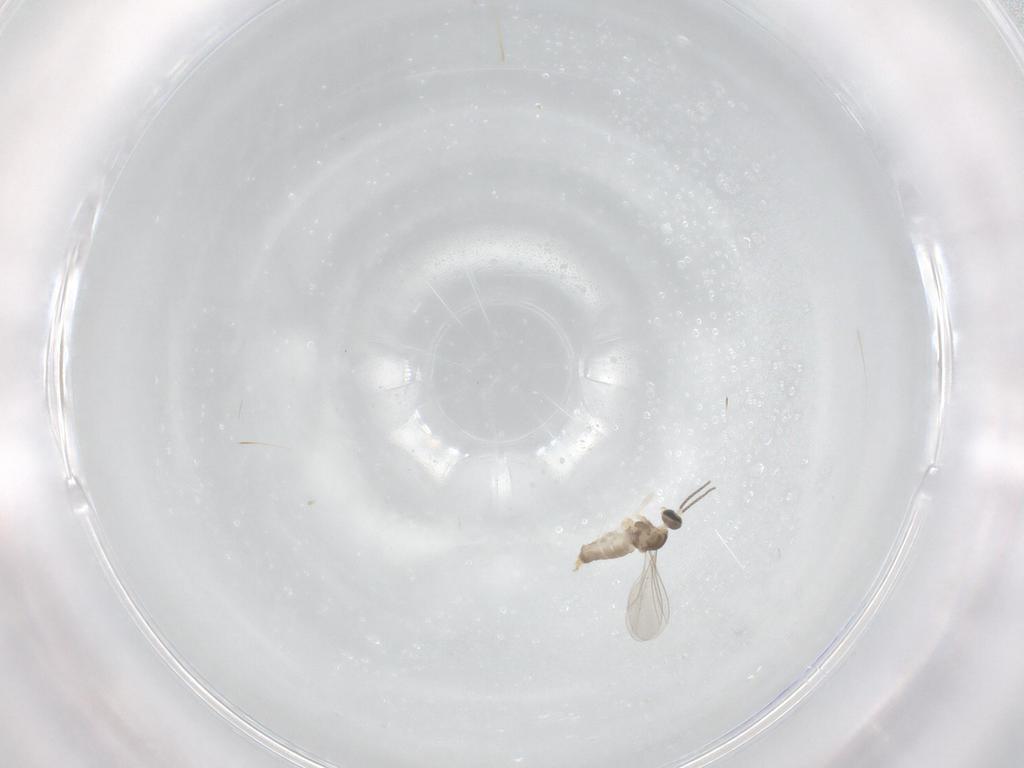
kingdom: Animalia
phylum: Arthropoda
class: Insecta
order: Diptera
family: Cecidomyiidae
